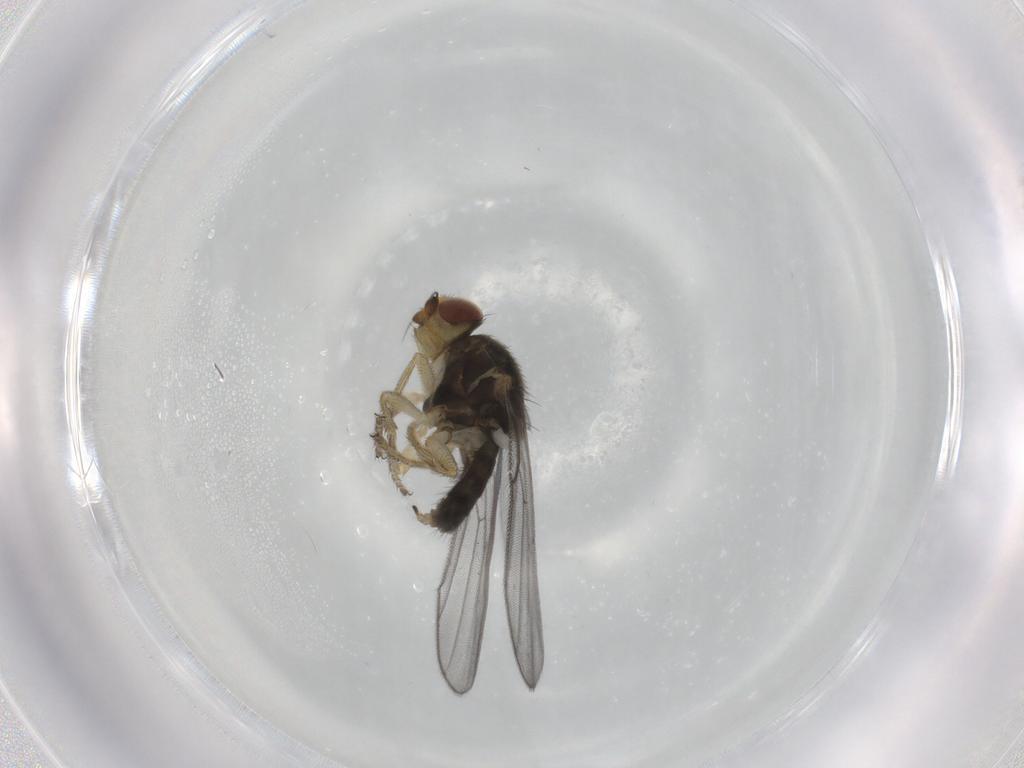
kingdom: Animalia
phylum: Arthropoda
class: Insecta
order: Diptera
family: Chloropidae
